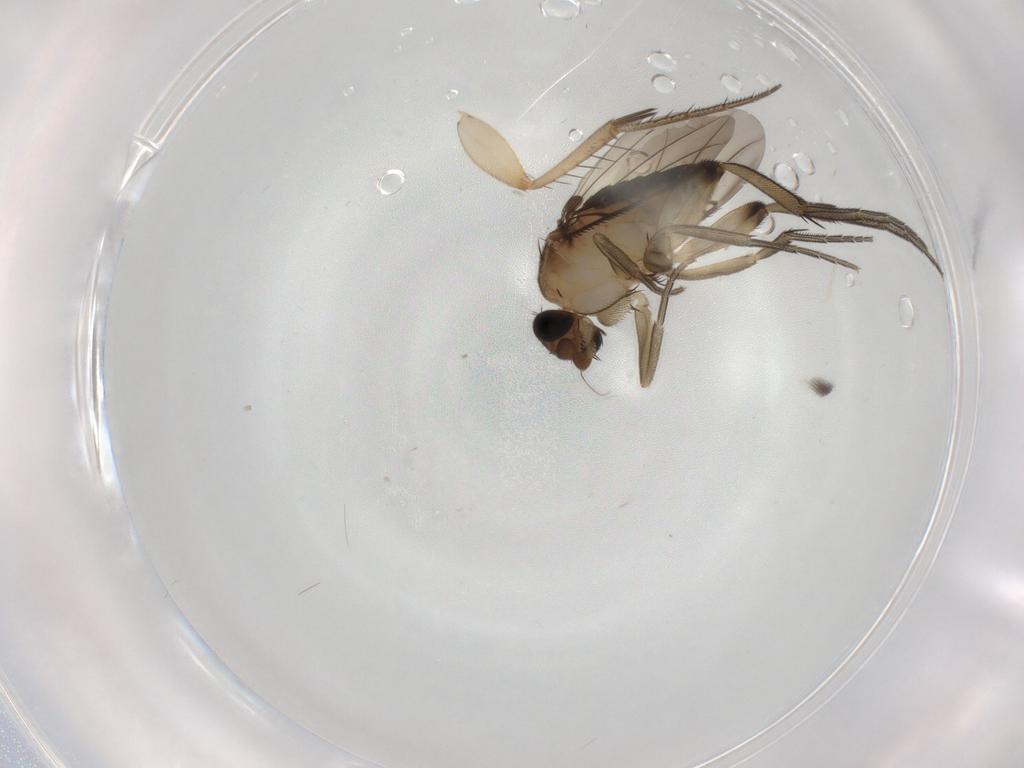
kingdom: Animalia
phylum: Arthropoda
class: Insecta
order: Diptera
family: Phoridae
